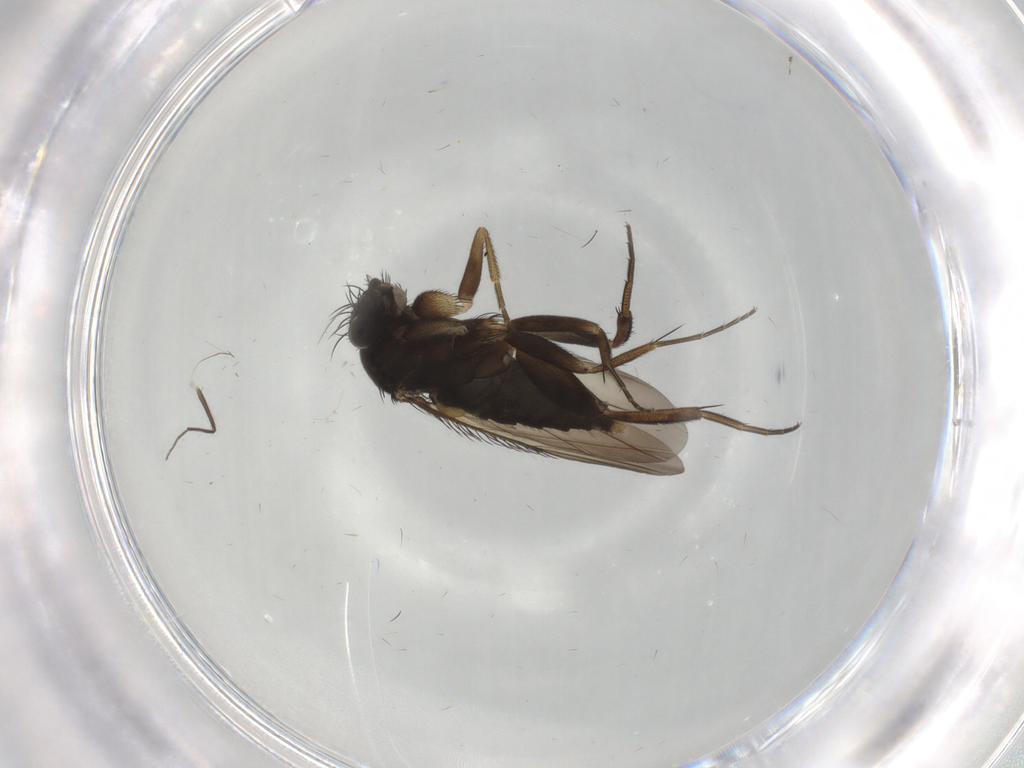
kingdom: Animalia
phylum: Arthropoda
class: Insecta
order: Diptera
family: Phoridae
